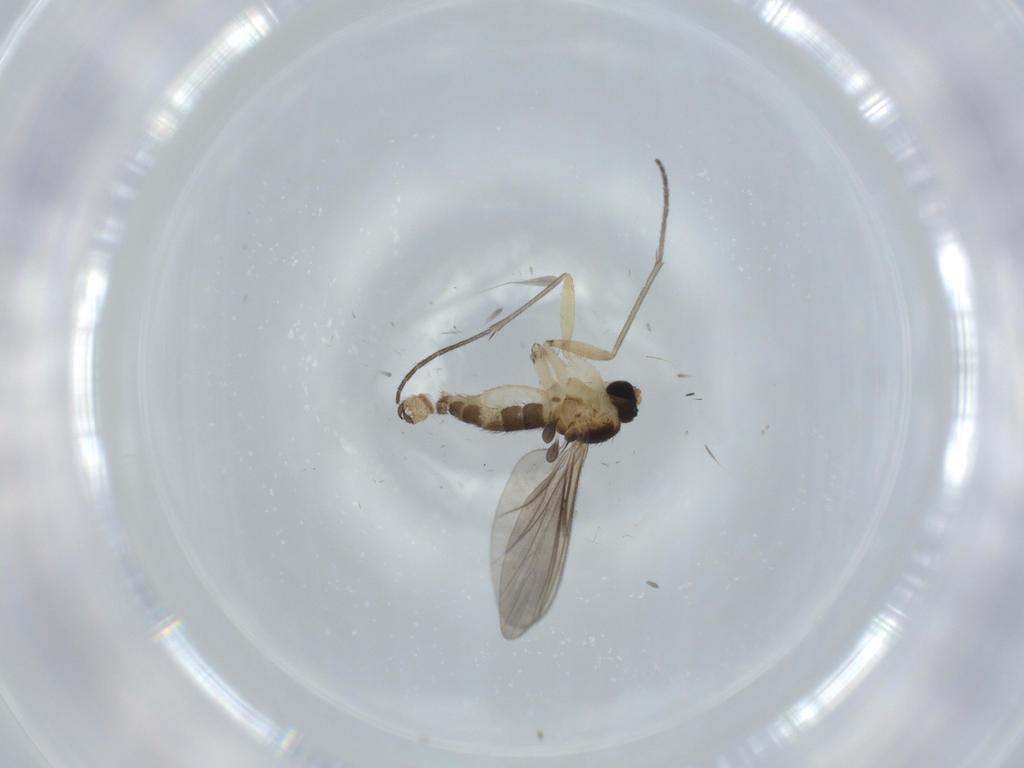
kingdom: Animalia
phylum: Arthropoda
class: Insecta
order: Diptera
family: Sciaridae
